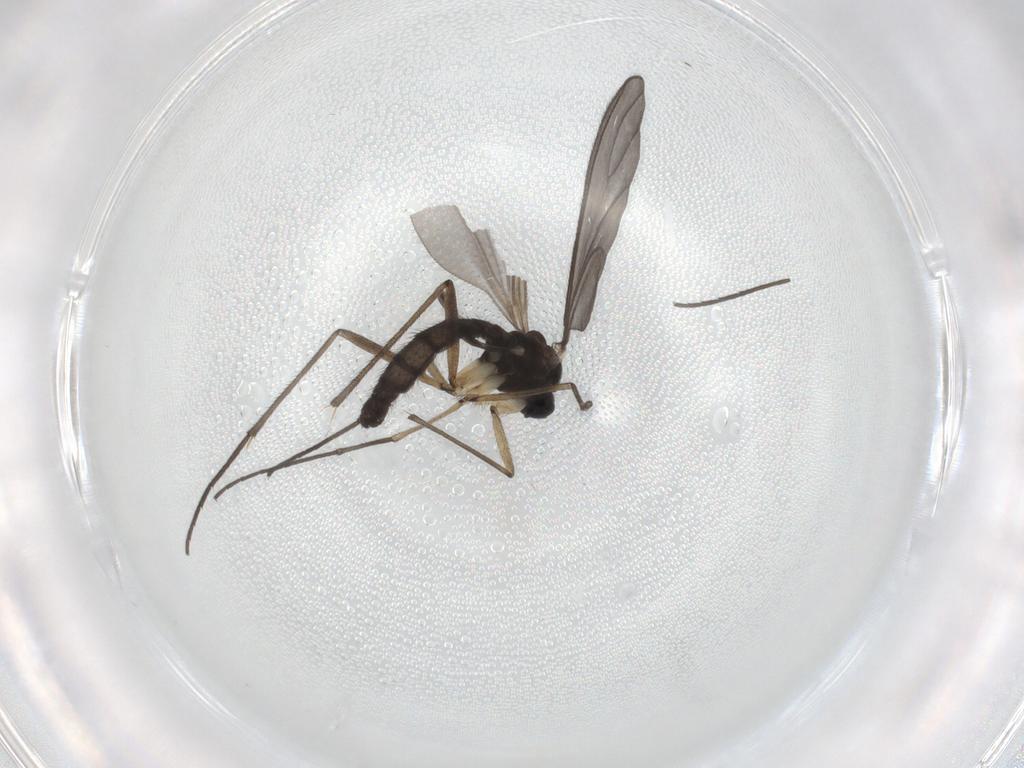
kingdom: Animalia
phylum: Arthropoda
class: Insecta
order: Diptera
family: Sciaridae
